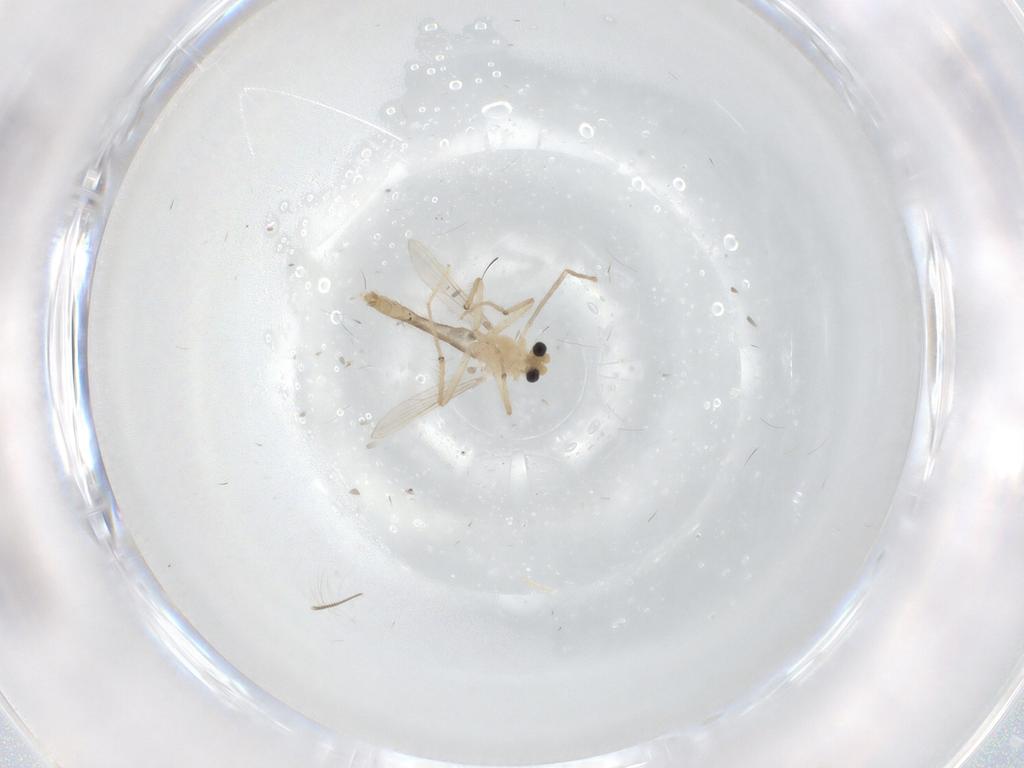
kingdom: Animalia
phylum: Arthropoda
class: Insecta
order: Diptera
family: Chironomidae
